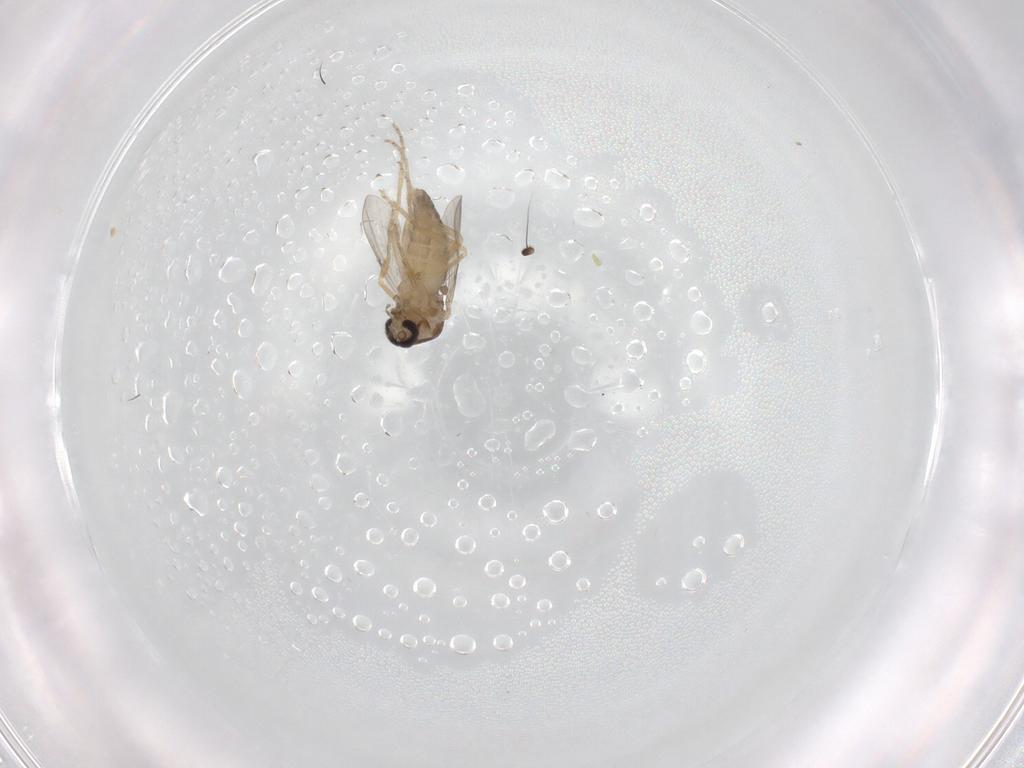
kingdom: Animalia
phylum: Arthropoda
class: Insecta
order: Diptera
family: Ceratopogonidae
